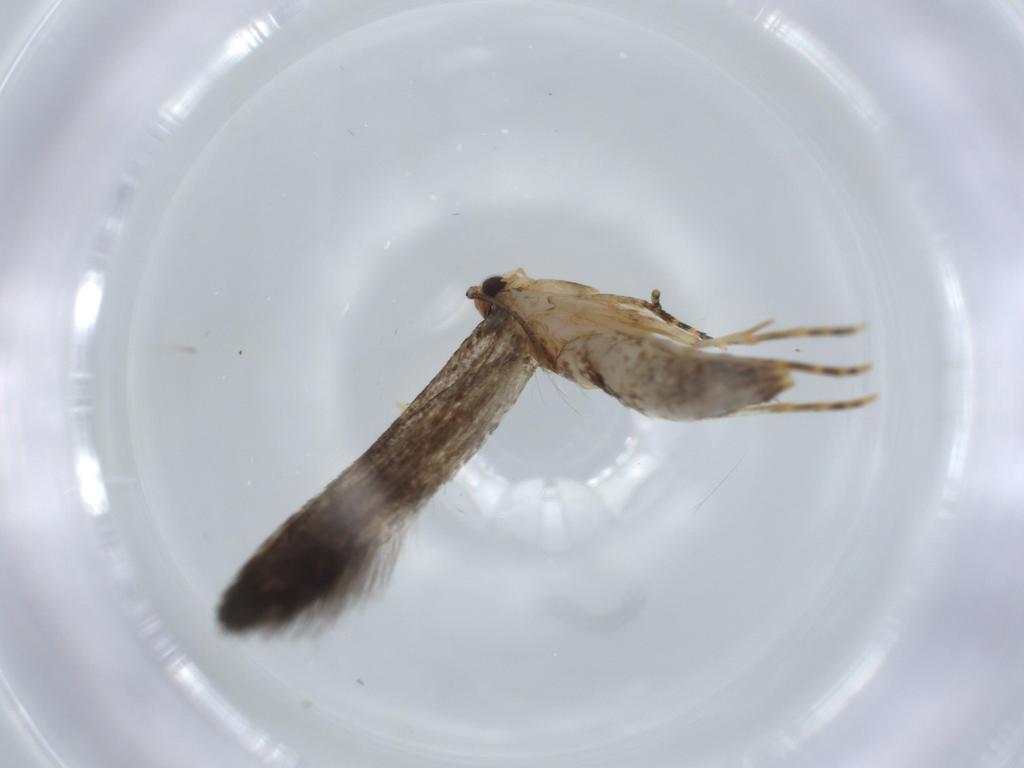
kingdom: Animalia
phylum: Arthropoda
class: Insecta
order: Lepidoptera
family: Tineidae
